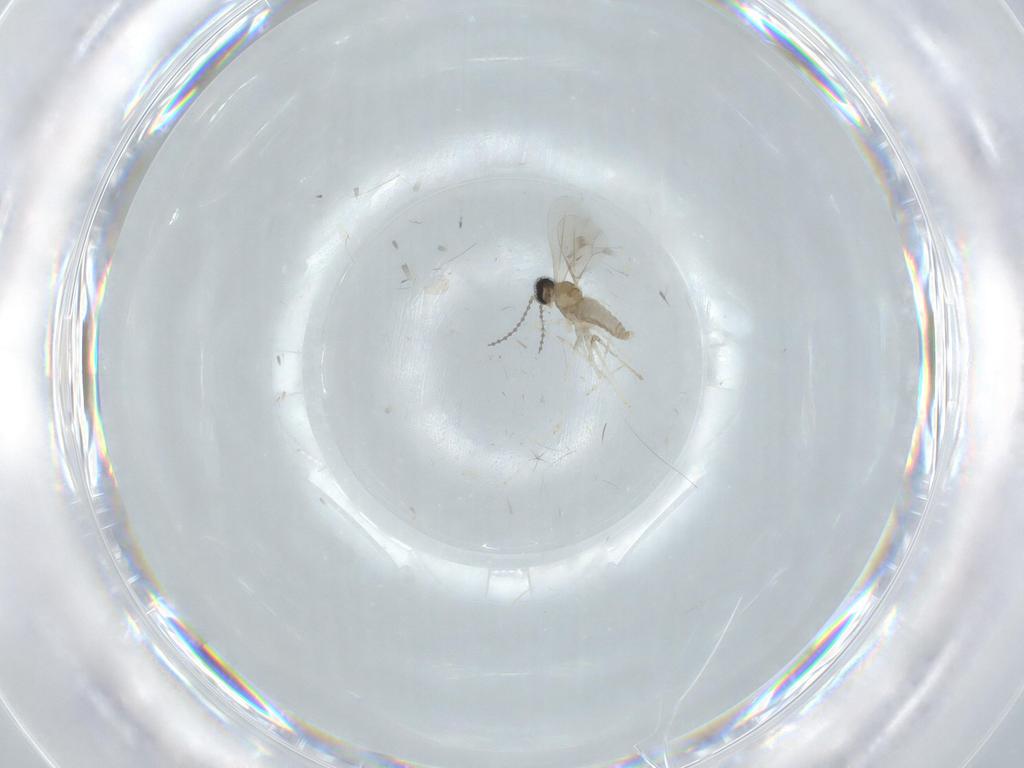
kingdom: Animalia
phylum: Arthropoda
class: Insecta
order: Diptera
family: Cecidomyiidae
